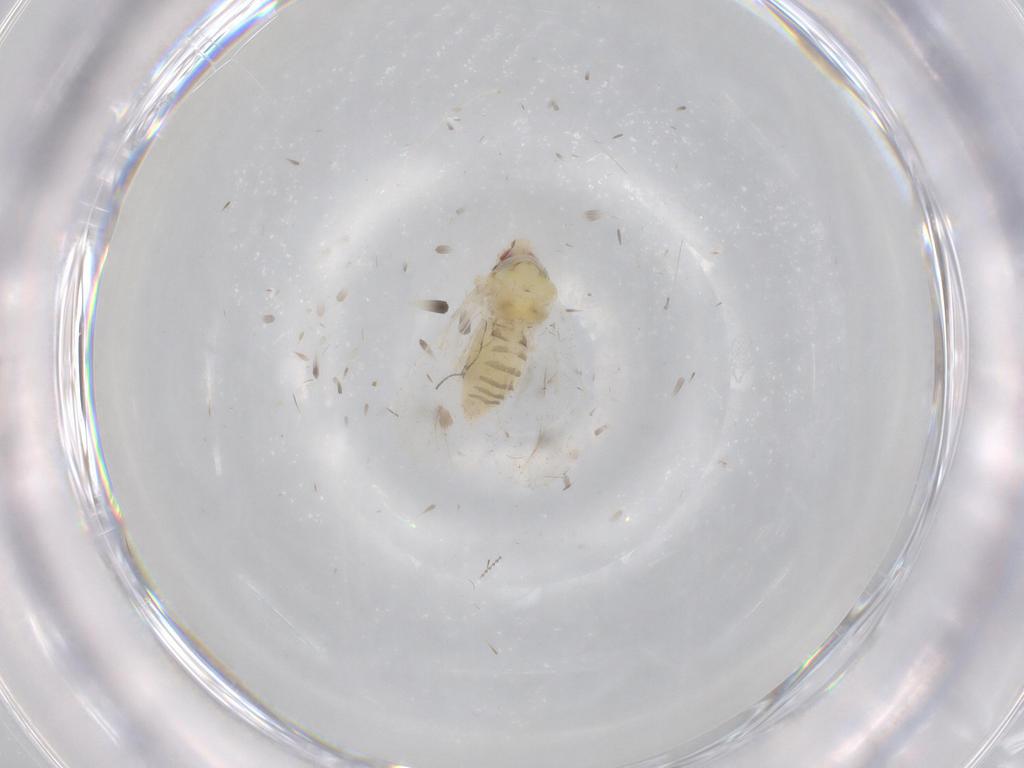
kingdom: Animalia
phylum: Arthropoda
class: Insecta
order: Hemiptera
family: Aleyrodidae
